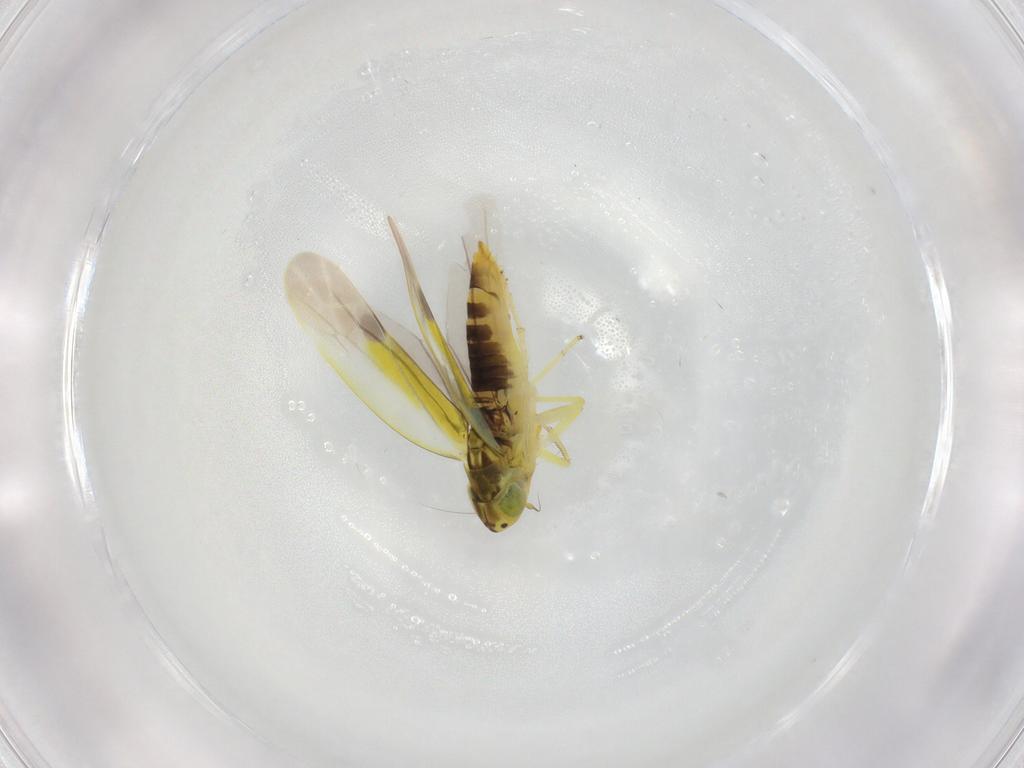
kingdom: Animalia
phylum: Arthropoda
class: Insecta
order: Hemiptera
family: Cicadellidae
